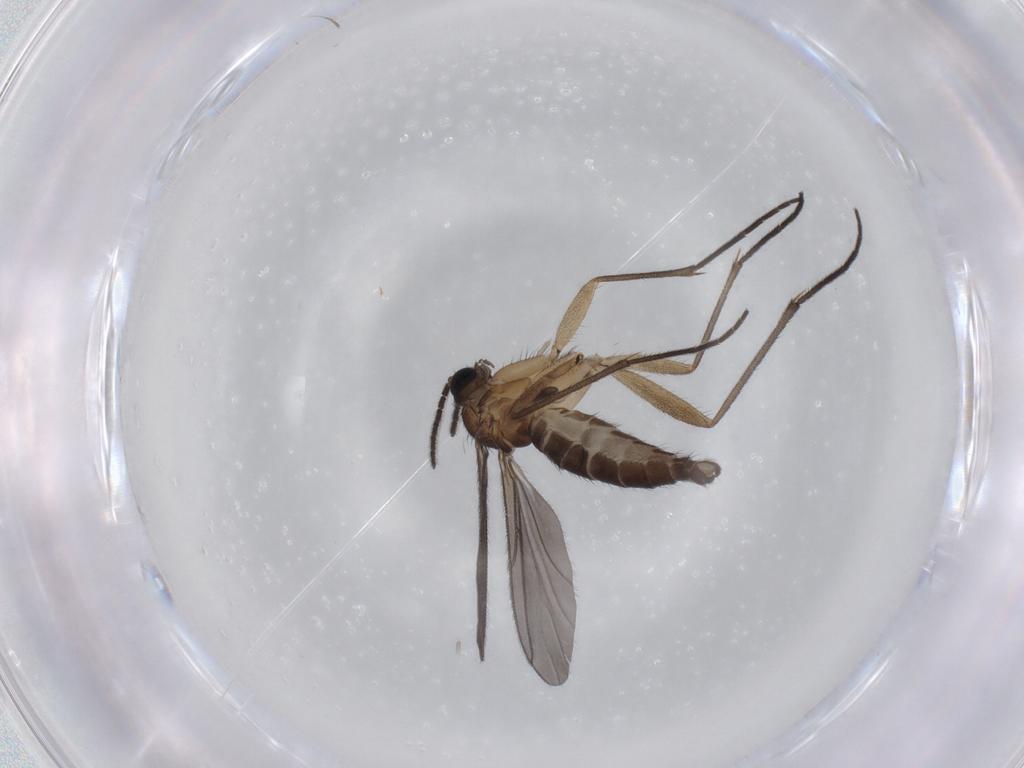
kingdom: Animalia
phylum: Arthropoda
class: Insecta
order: Diptera
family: Sciaridae
